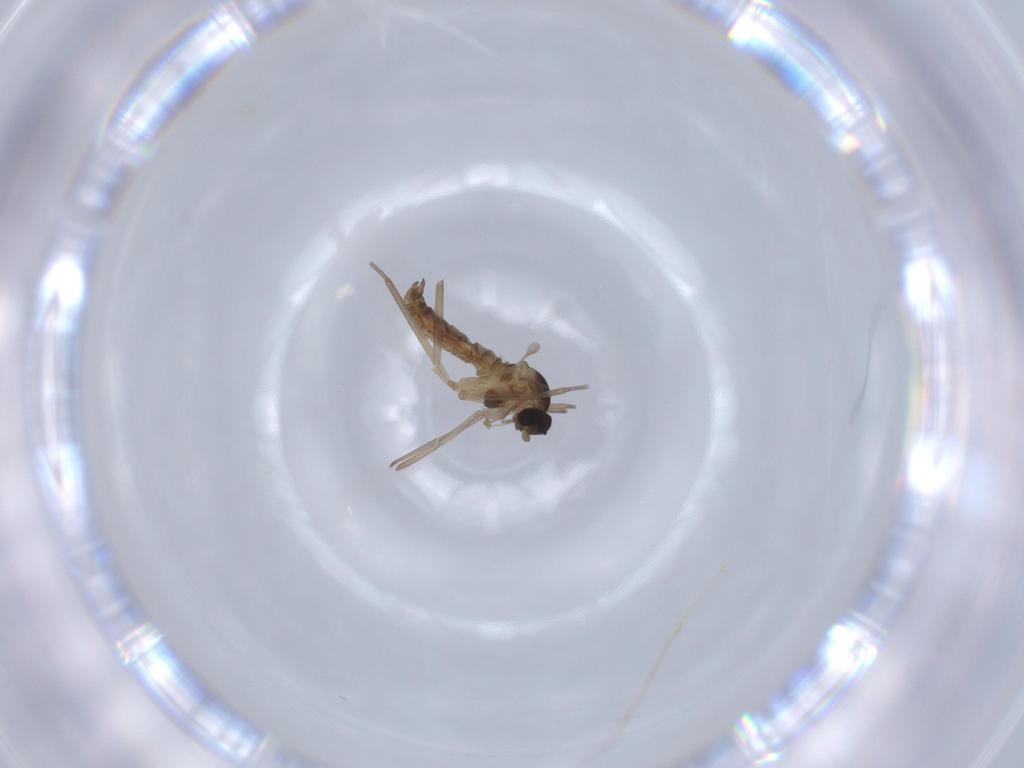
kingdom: Animalia
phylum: Arthropoda
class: Insecta
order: Diptera
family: Cecidomyiidae
